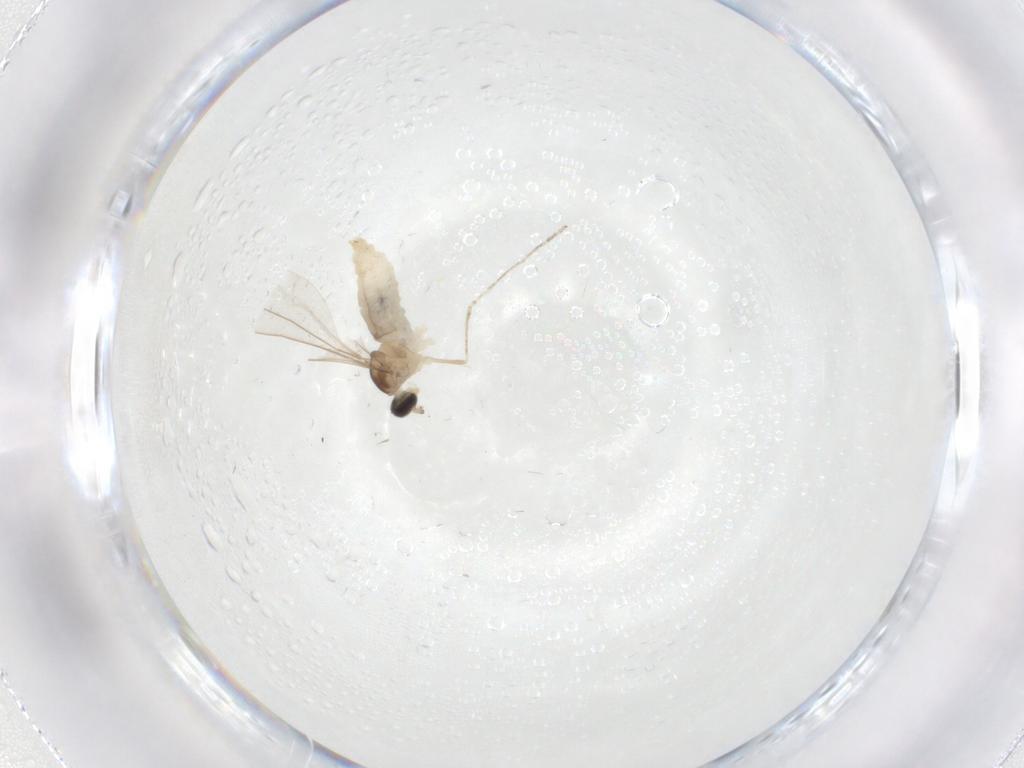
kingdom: Animalia
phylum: Arthropoda
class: Insecta
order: Diptera
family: Cecidomyiidae
